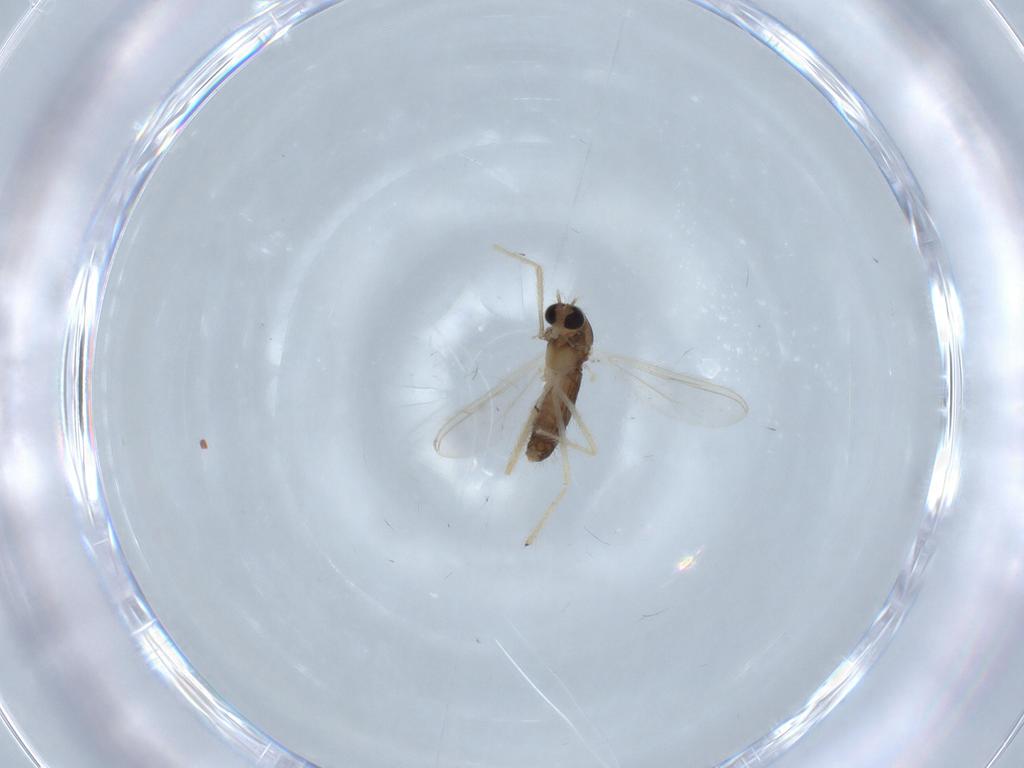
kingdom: Animalia
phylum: Arthropoda
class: Insecta
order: Diptera
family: Chironomidae
